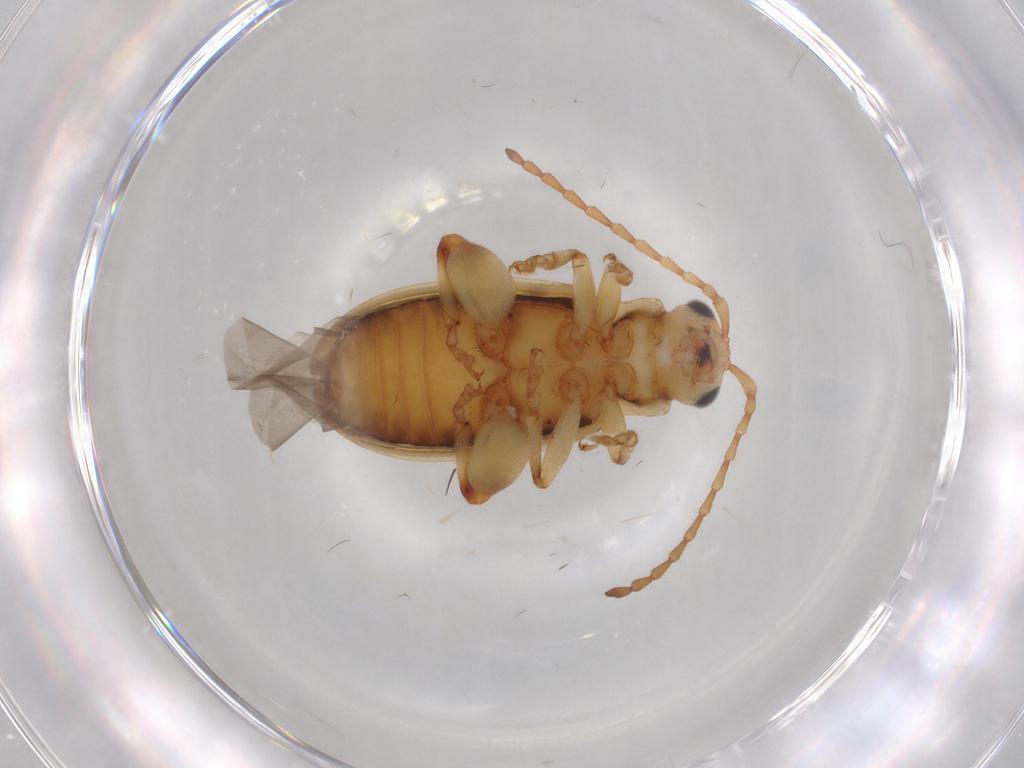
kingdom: Animalia
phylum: Arthropoda
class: Insecta
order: Coleoptera
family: Chrysomelidae
